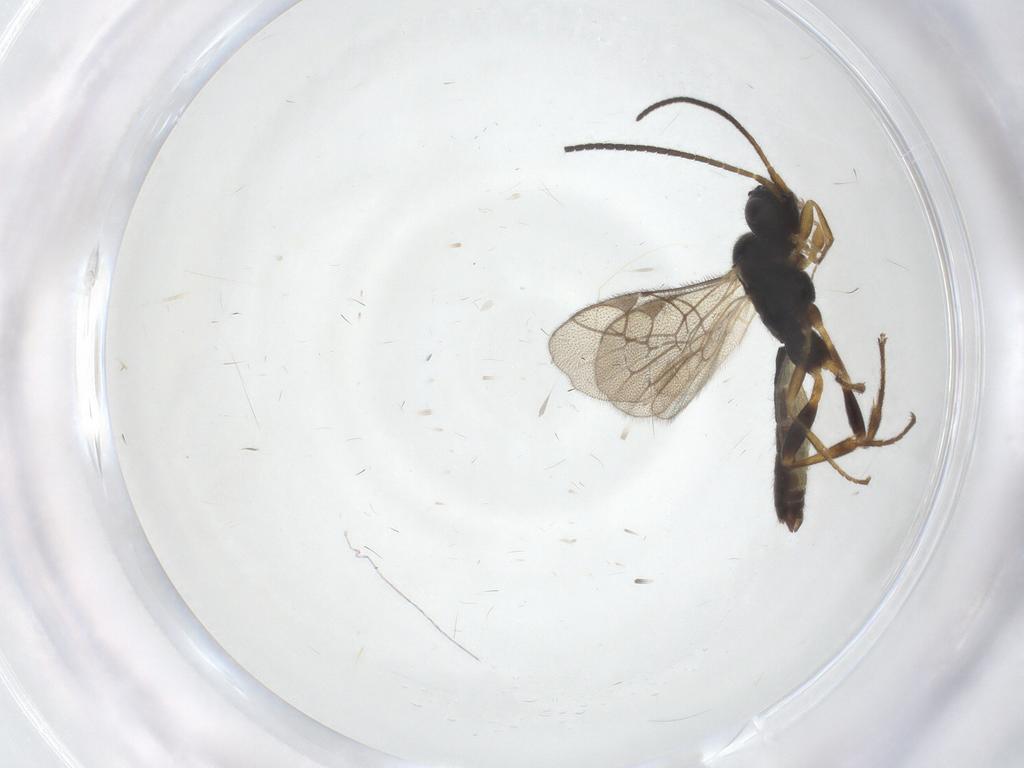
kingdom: Animalia
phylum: Arthropoda
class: Insecta
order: Hymenoptera
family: Ichneumonidae
